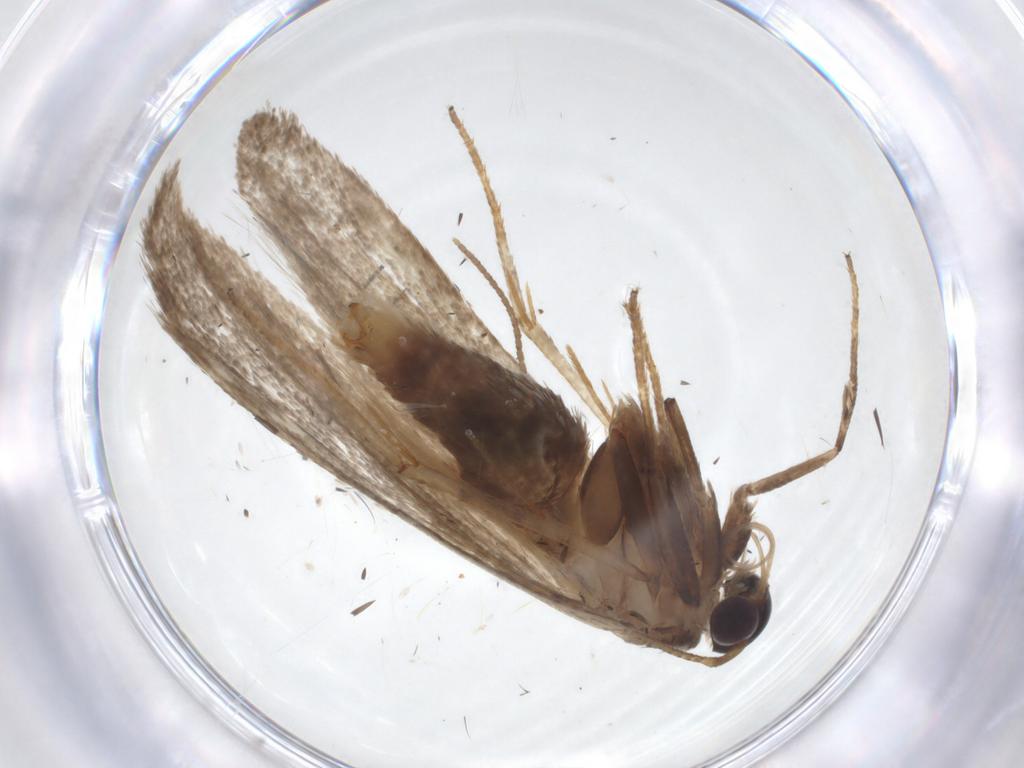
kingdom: Animalia
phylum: Arthropoda
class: Insecta
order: Lepidoptera
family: Blastobasidae
